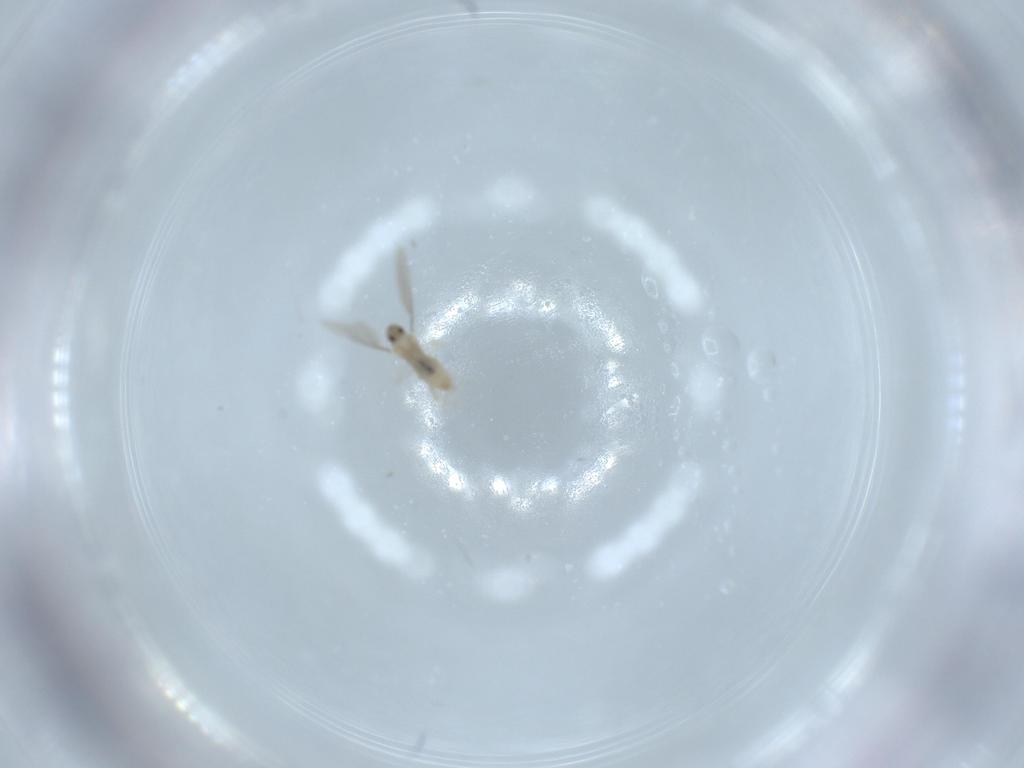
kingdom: Animalia
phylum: Arthropoda
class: Insecta
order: Diptera
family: Cecidomyiidae
